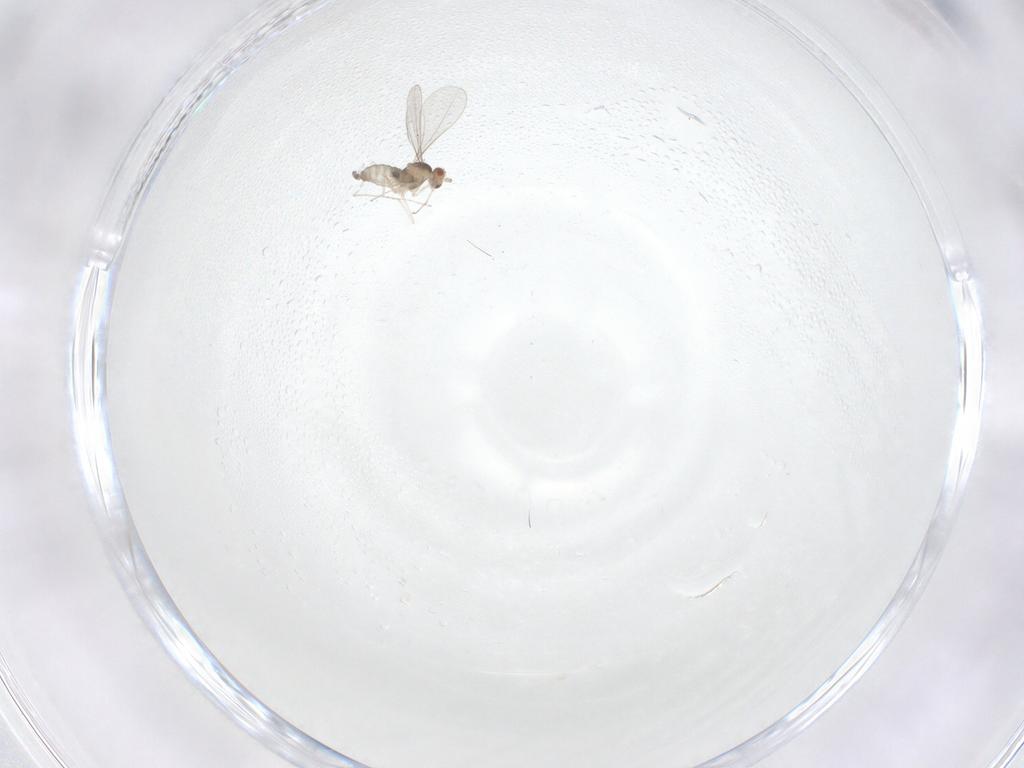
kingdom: Animalia
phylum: Arthropoda
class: Insecta
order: Diptera
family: Cecidomyiidae
